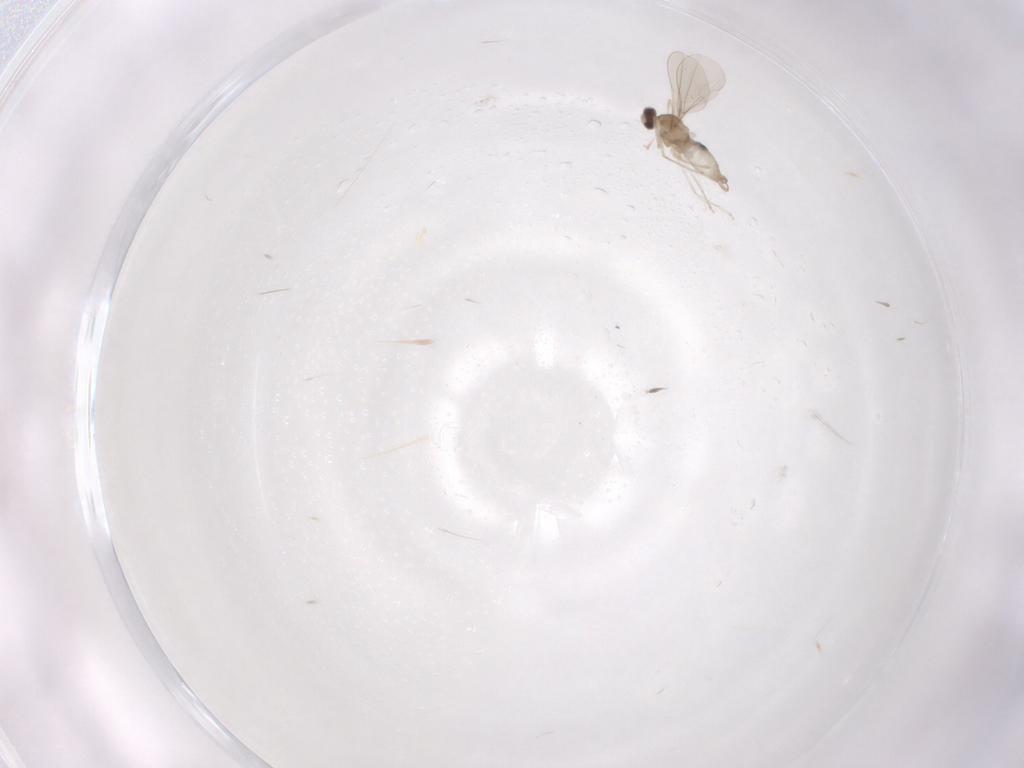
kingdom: Animalia
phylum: Arthropoda
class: Insecta
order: Diptera
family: Cecidomyiidae
